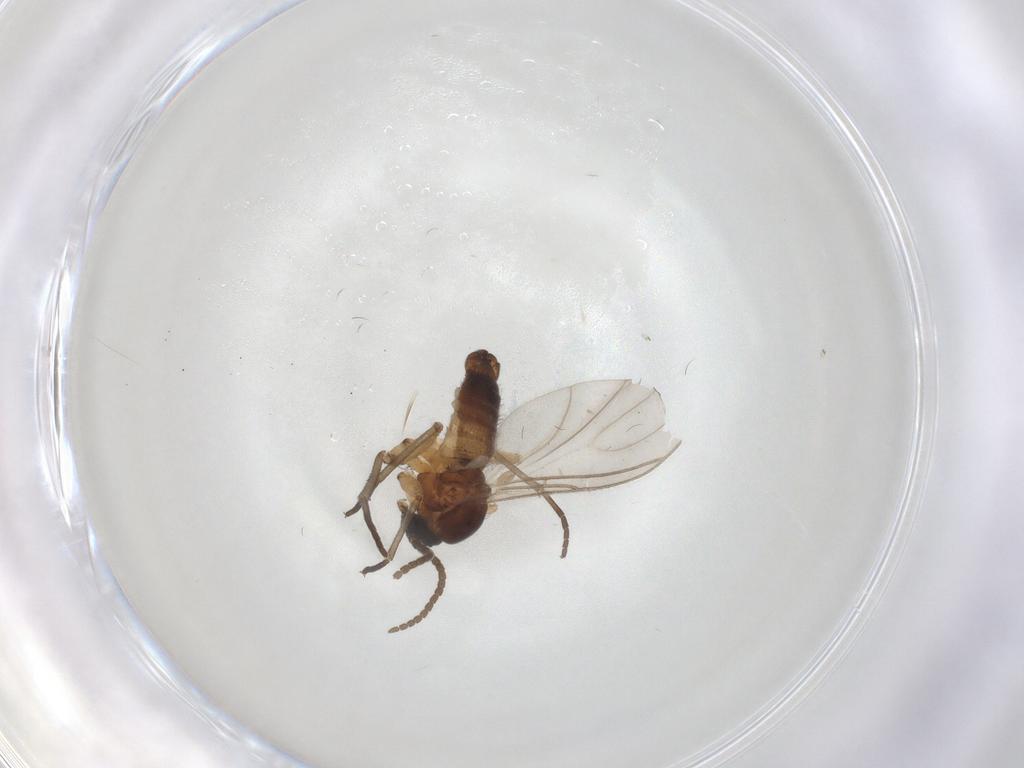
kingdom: Animalia
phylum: Arthropoda
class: Insecta
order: Diptera
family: Sciaridae
